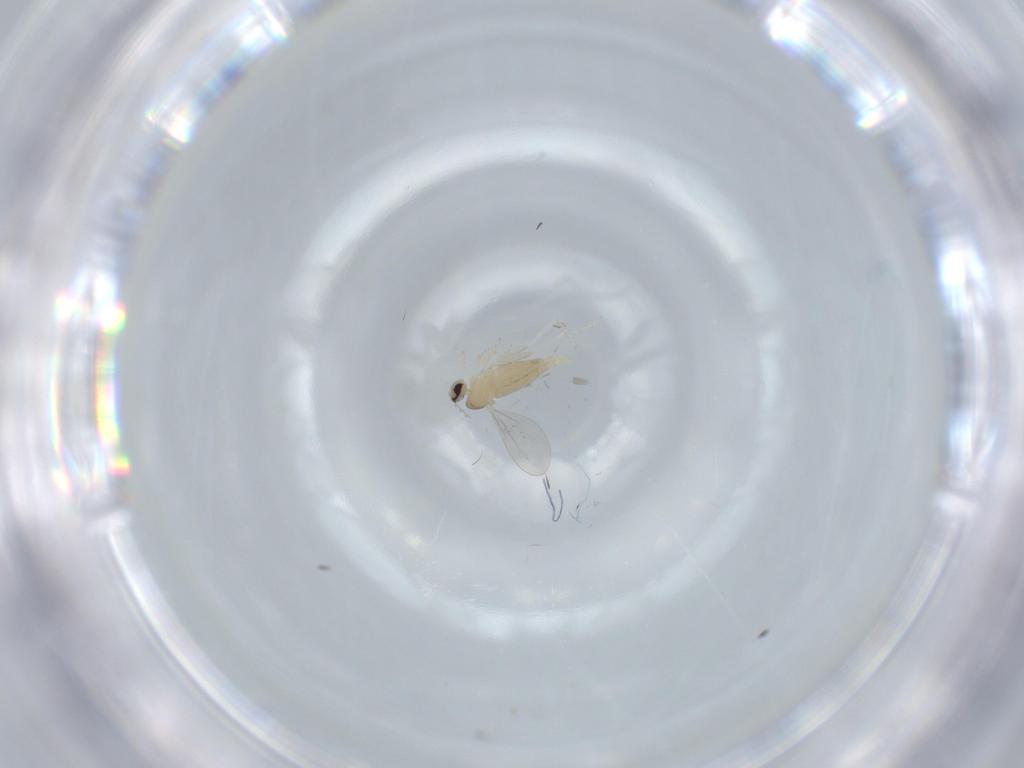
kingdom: Animalia
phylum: Arthropoda
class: Insecta
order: Diptera
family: Cecidomyiidae
